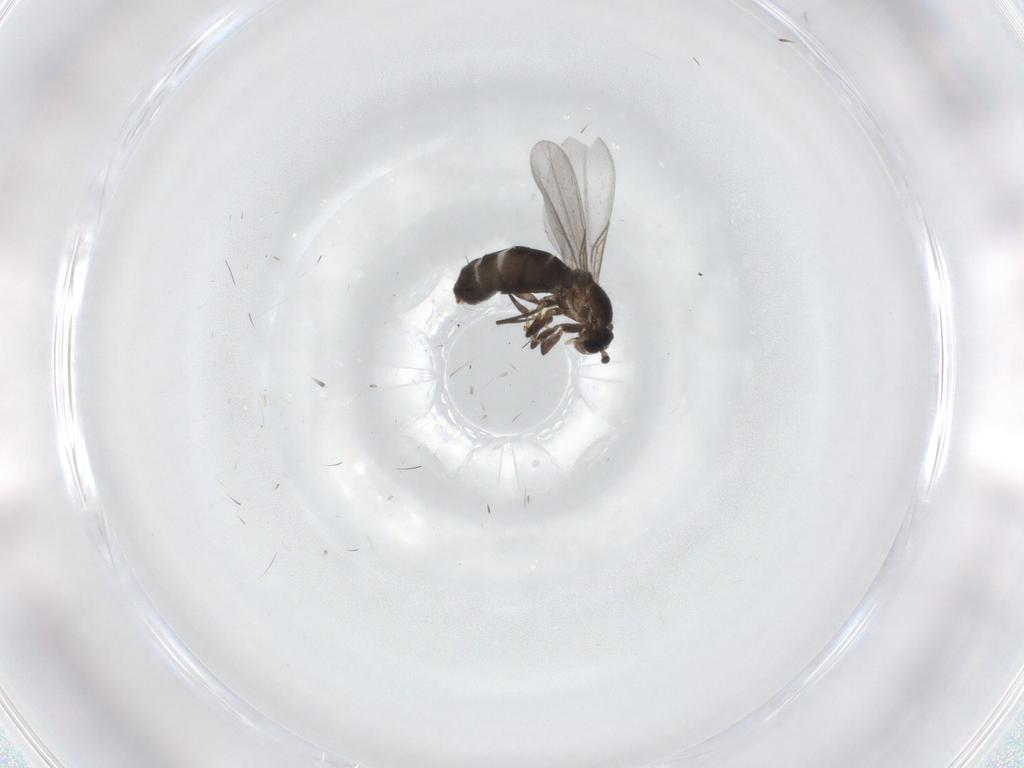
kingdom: Animalia
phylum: Arthropoda
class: Insecta
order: Diptera
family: Scatopsidae
